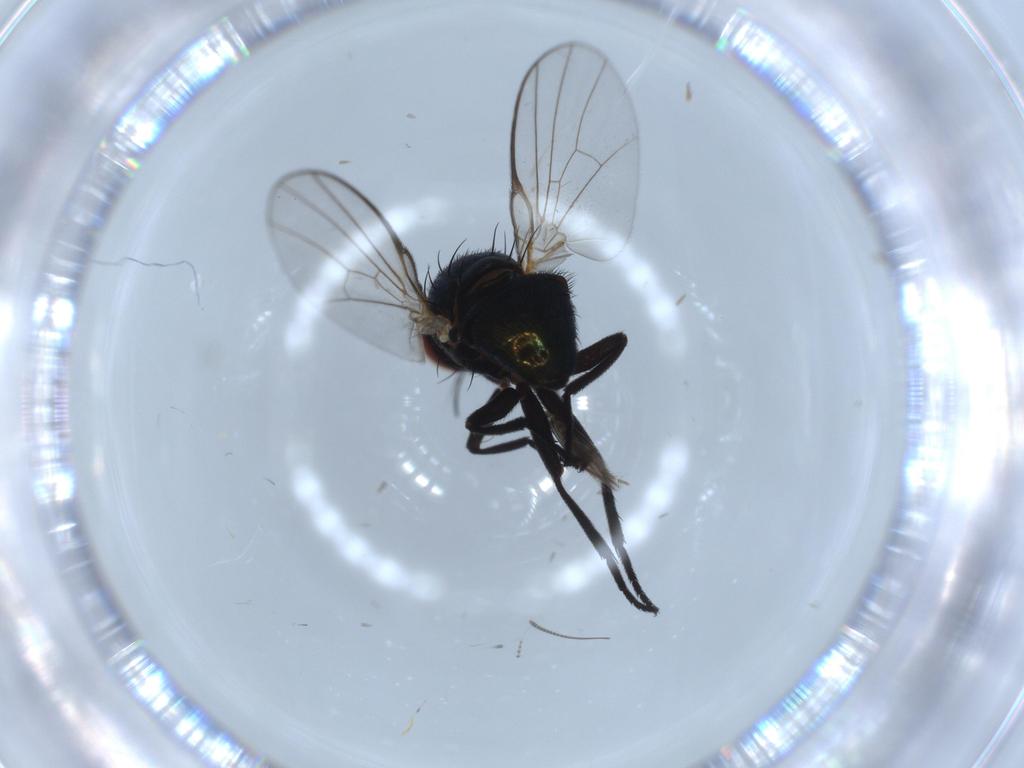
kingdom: Animalia
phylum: Arthropoda
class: Insecta
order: Diptera
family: Agromyzidae
